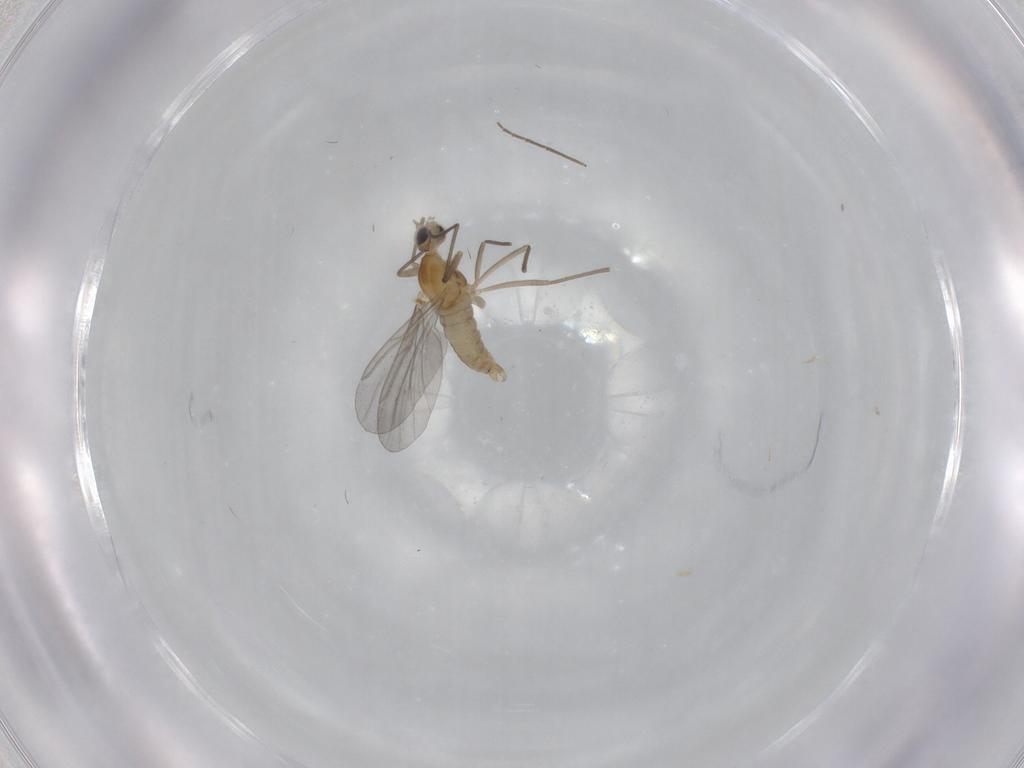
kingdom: Animalia
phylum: Arthropoda
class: Insecta
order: Diptera
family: Cecidomyiidae
